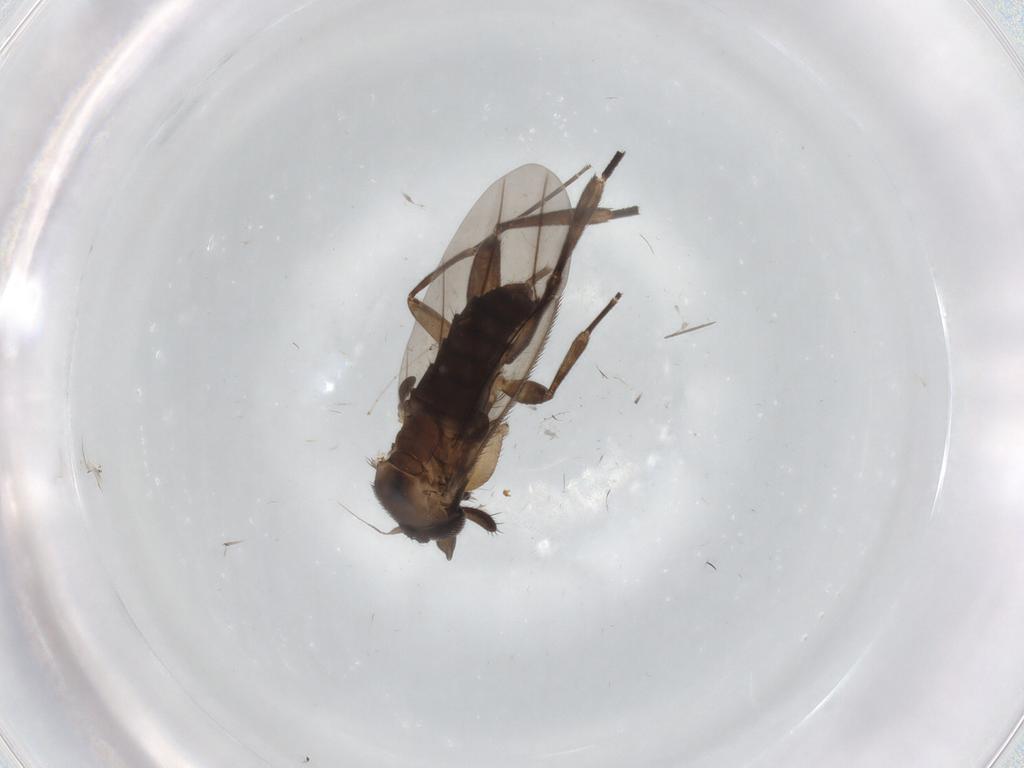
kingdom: Animalia
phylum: Arthropoda
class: Insecta
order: Diptera
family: Phoridae
